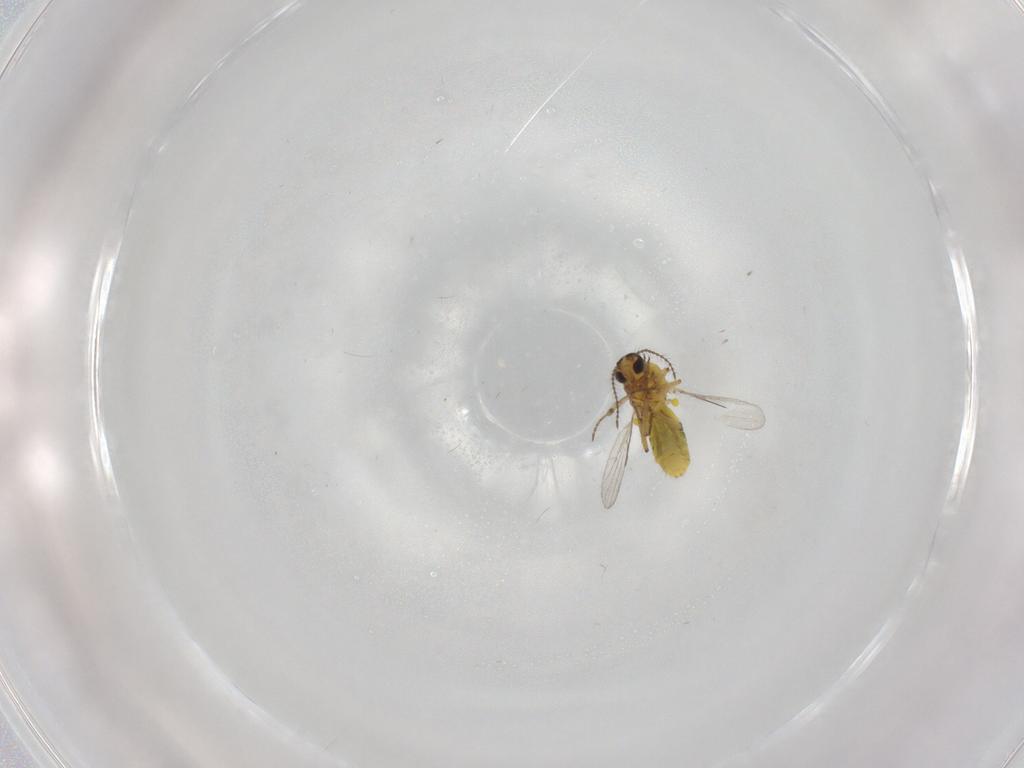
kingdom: Animalia
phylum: Arthropoda
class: Insecta
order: Diptera
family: Ceratopogonidae
